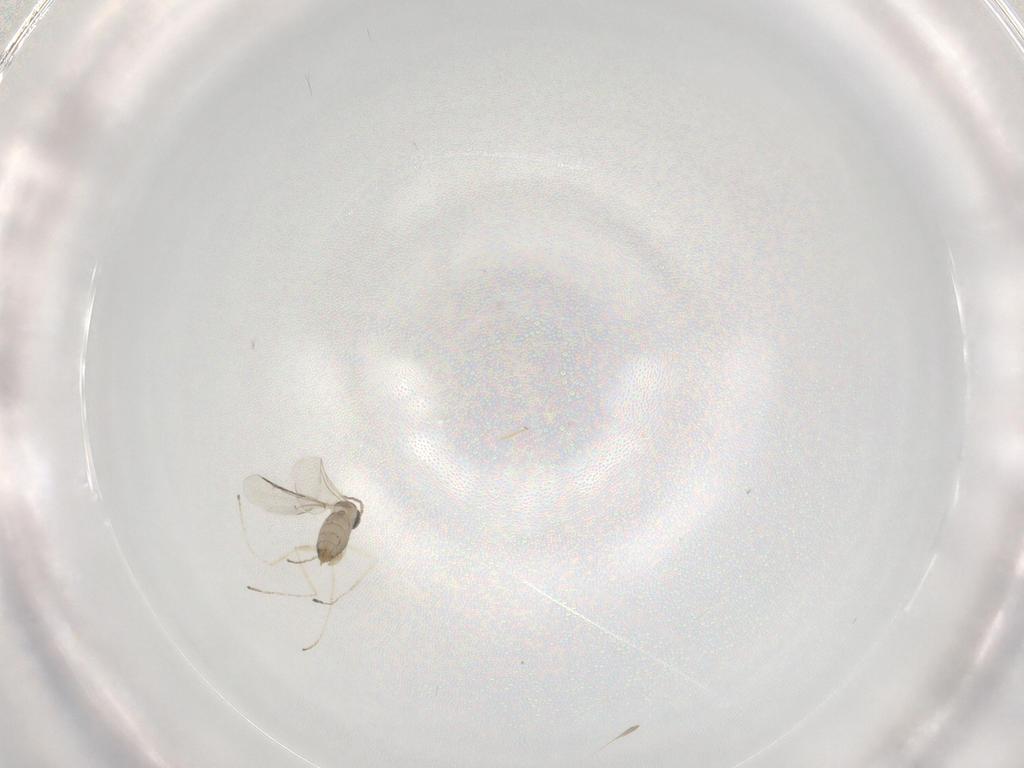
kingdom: Animalia
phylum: Arthropoda
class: Insecta
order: Diptera
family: Cecidomyiidae
